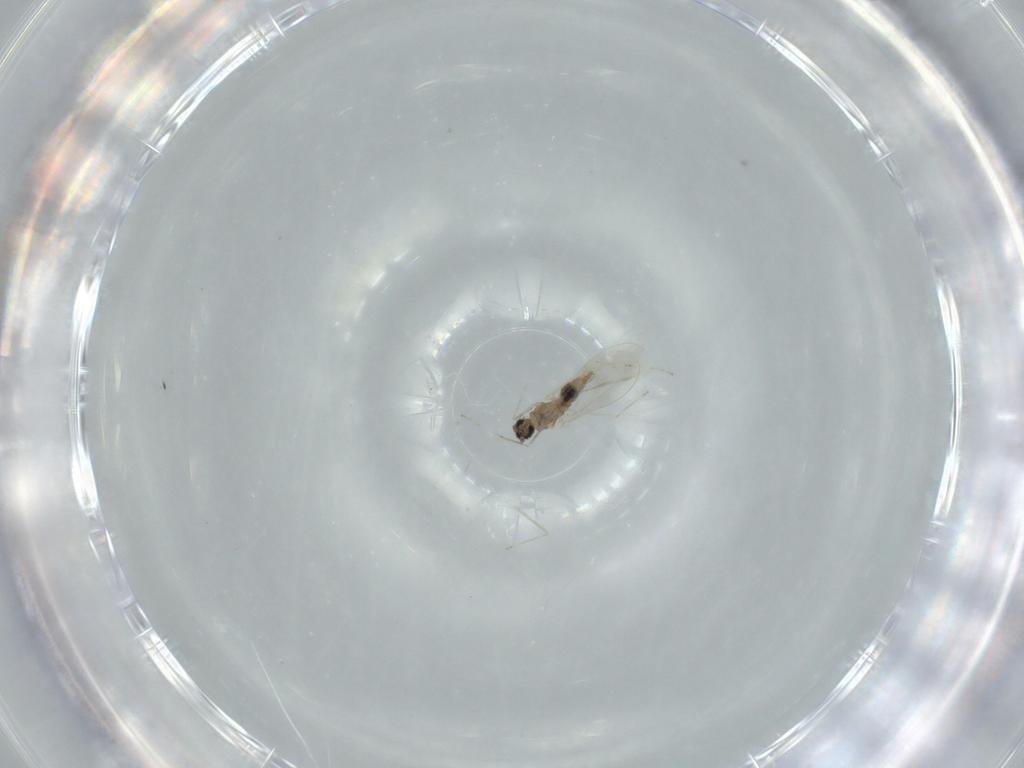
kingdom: Animalia
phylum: Arthropoda
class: Insecta
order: Diptera
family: Cecidomyiidae
